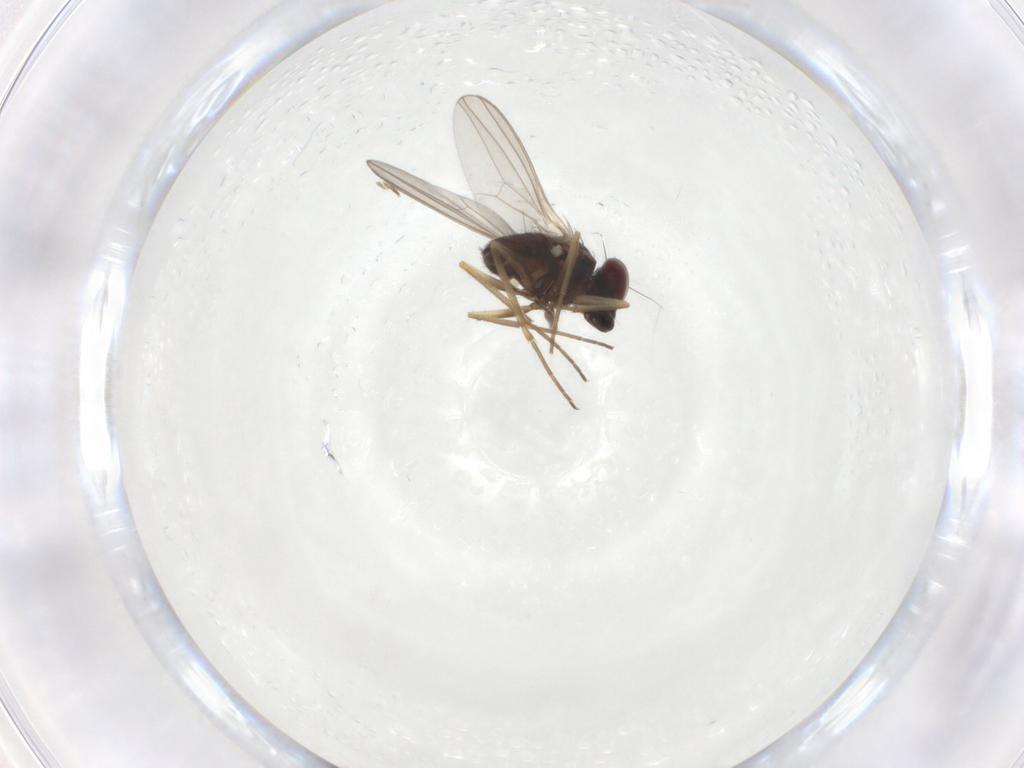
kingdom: Animalia
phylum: Arthropoda
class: Insecta
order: Diptera
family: Dolichopodidae
